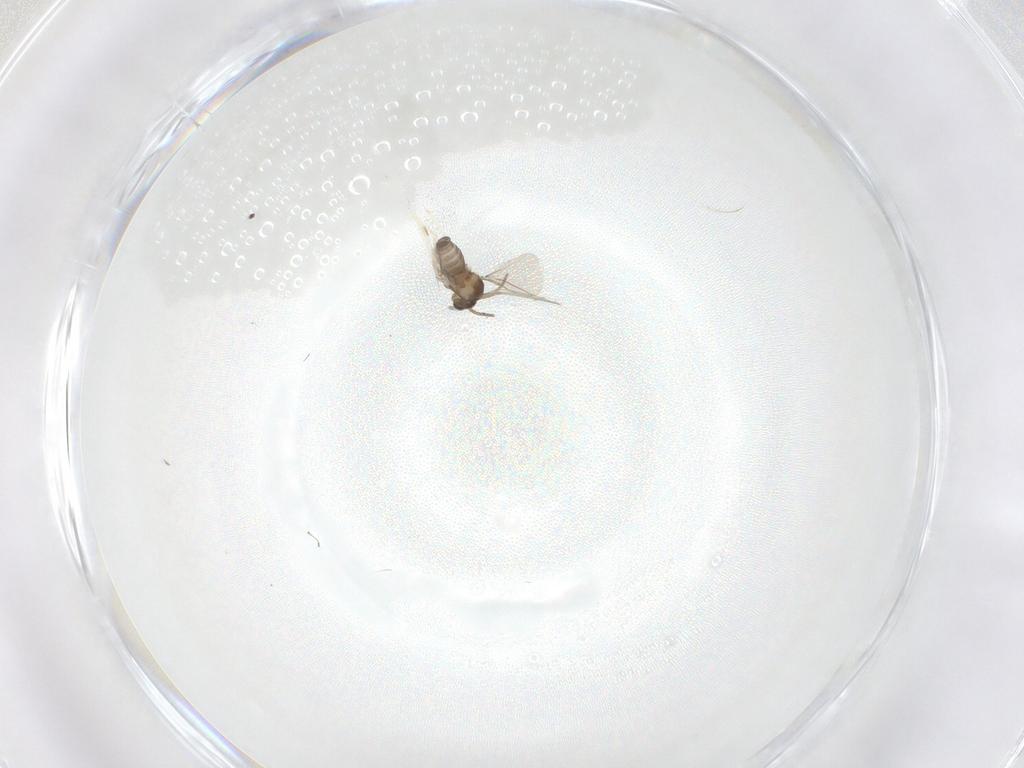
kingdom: Animalia
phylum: Arthropoda
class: Insecta
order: Diptera
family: Cecidomyiidae
